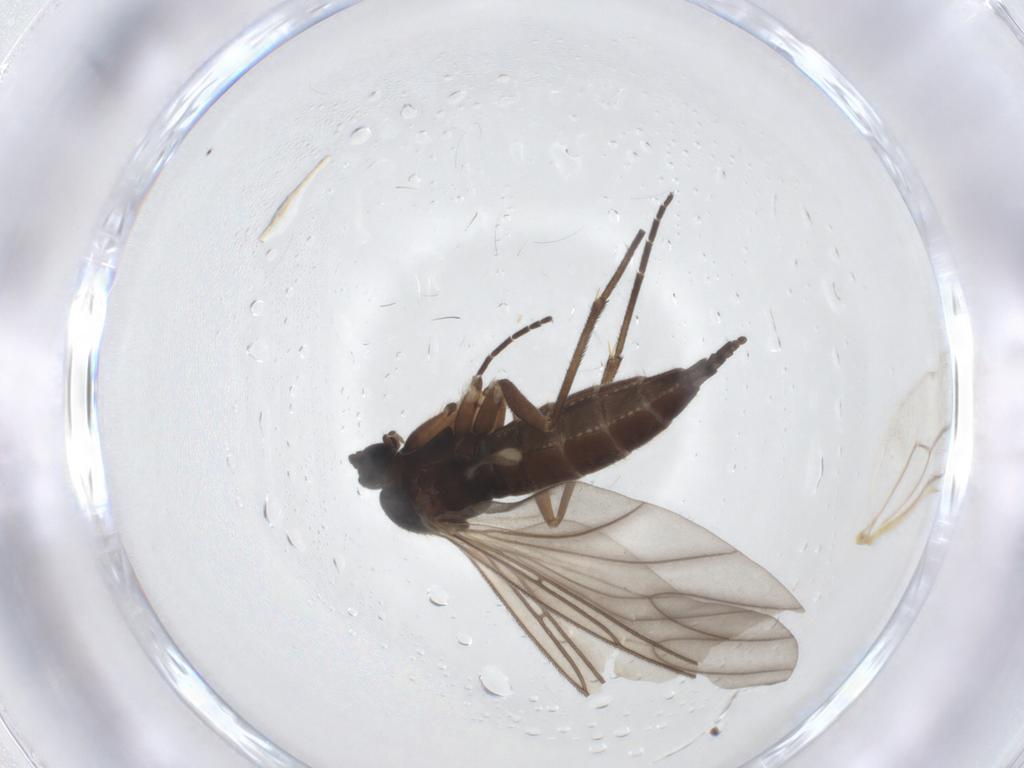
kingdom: Animalia
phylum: Arthropoda
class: Insecta
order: Diptera
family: Sciaridae
